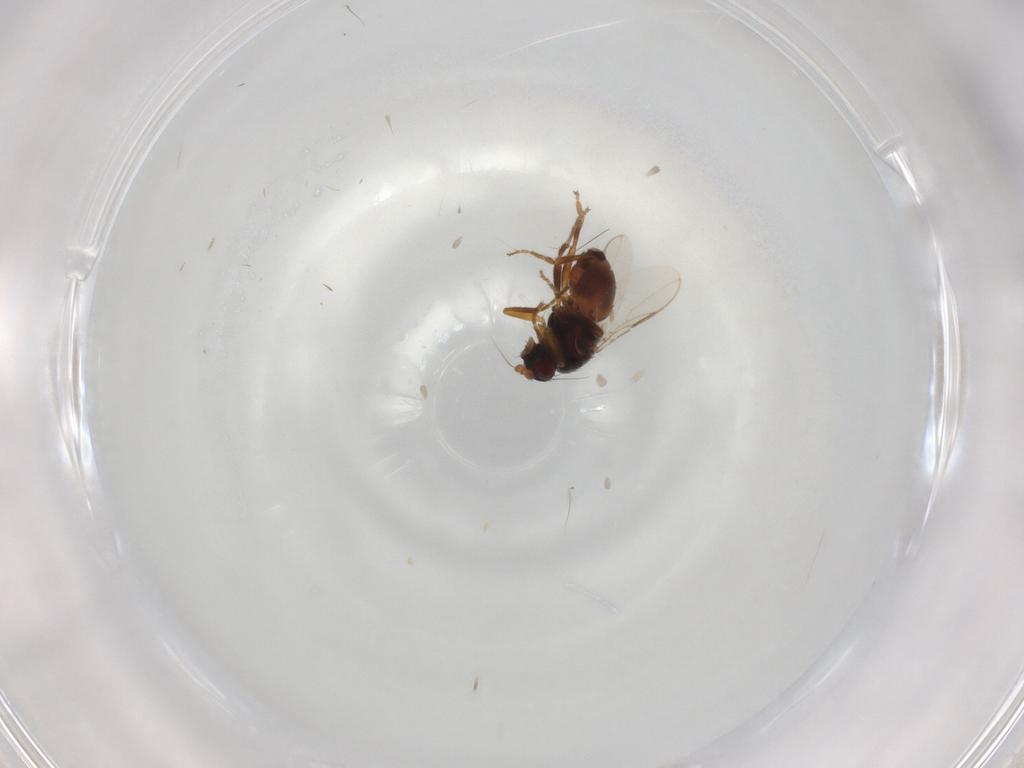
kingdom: Animalia
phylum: Arthropoda
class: Insecta
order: Diptera
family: Sphaeroceridae
